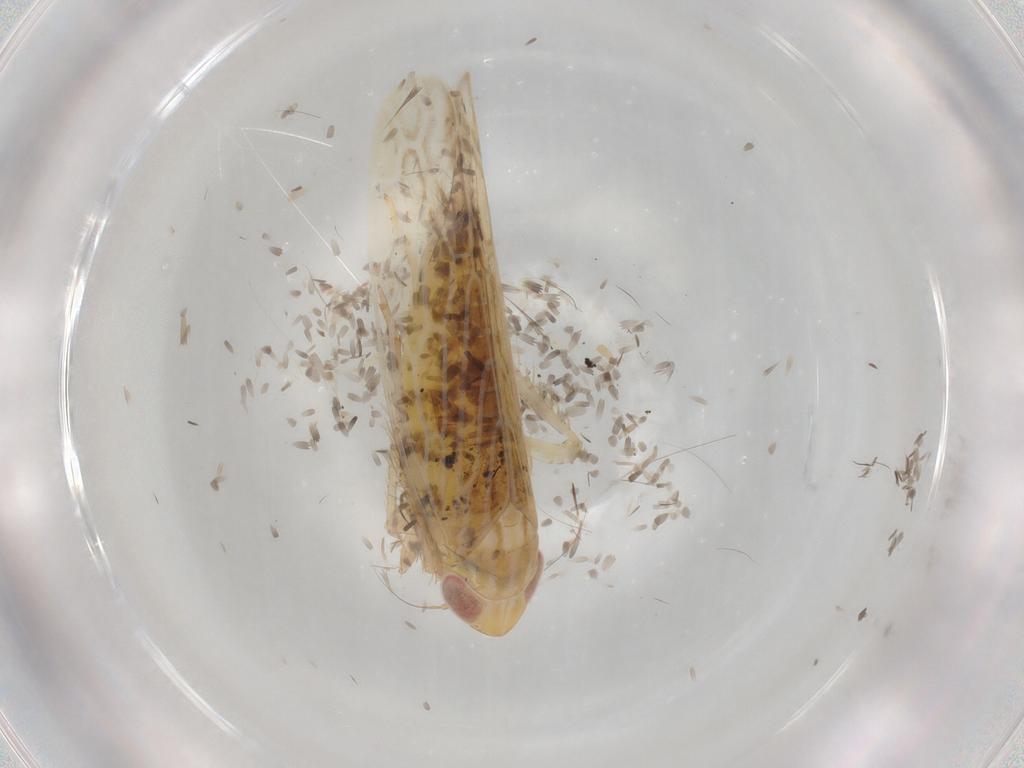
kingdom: Animalia
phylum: Arthropoda
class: Insecta
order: Hemiptera
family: Cicadellidae
